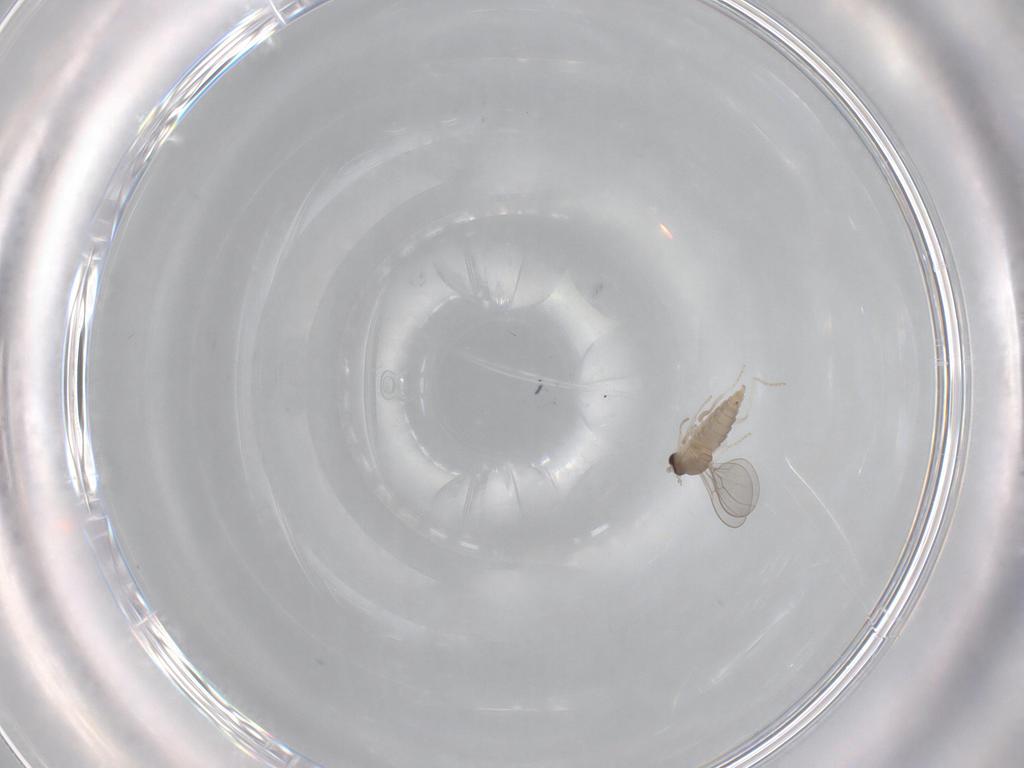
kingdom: Animalia
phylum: Arthropoda
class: Insecta
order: Diptera
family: Cecidomyiidae
